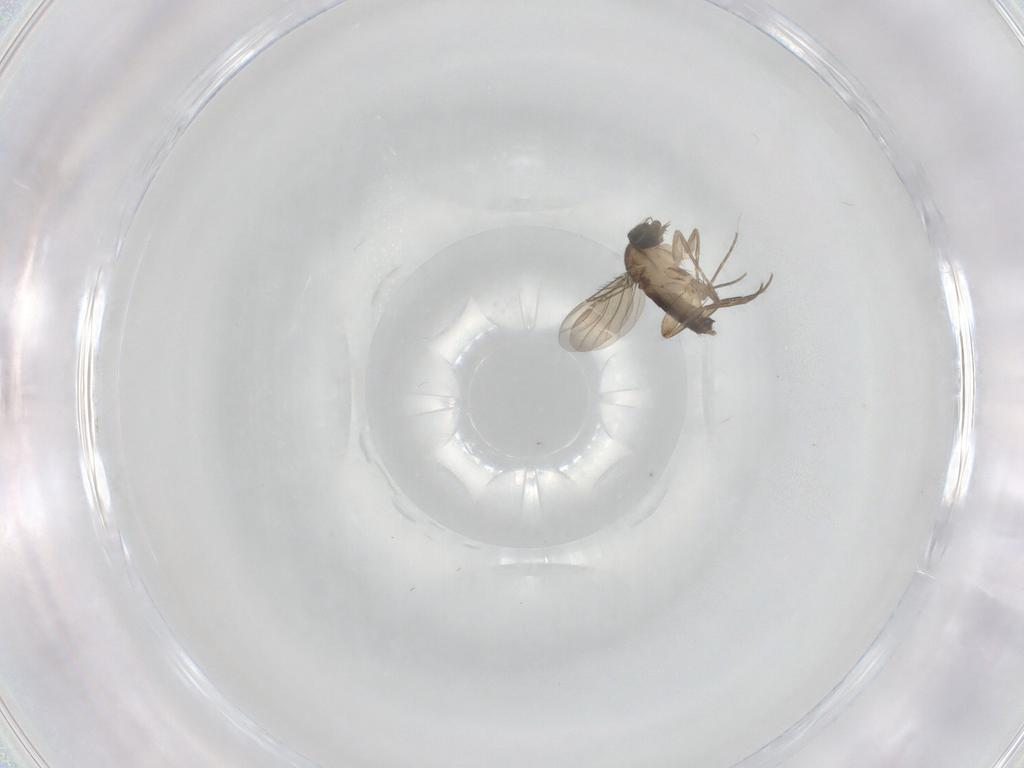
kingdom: Animalia
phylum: Arthropoda
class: Insecta
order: Diptera
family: Phoridae
